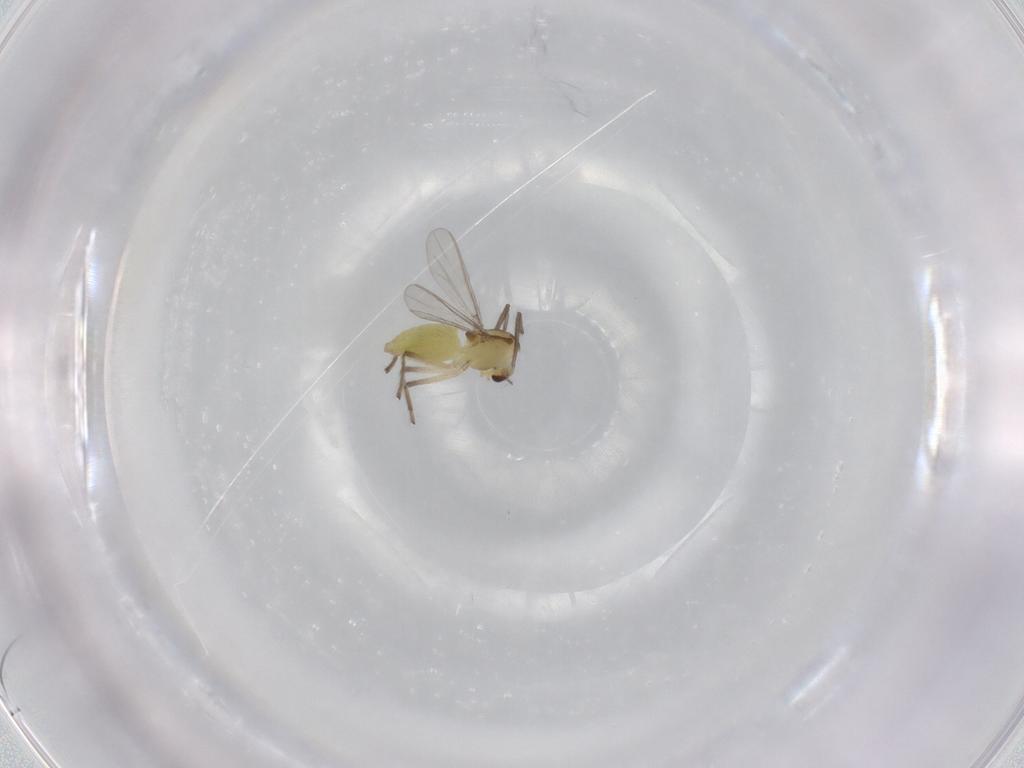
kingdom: Animalia
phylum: Arthropoda
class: Insecta
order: Diptera
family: Chironomidae
